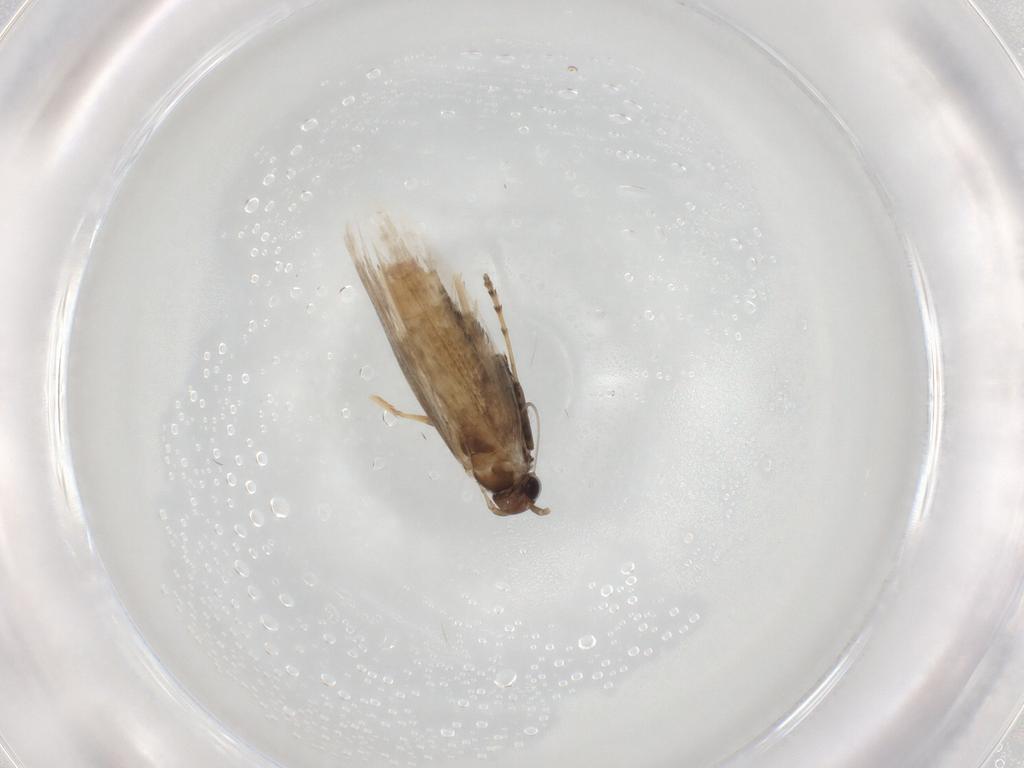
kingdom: Animalia
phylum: Arthropoda
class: Insecta
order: Lepidoptera
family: Gracillariidae
